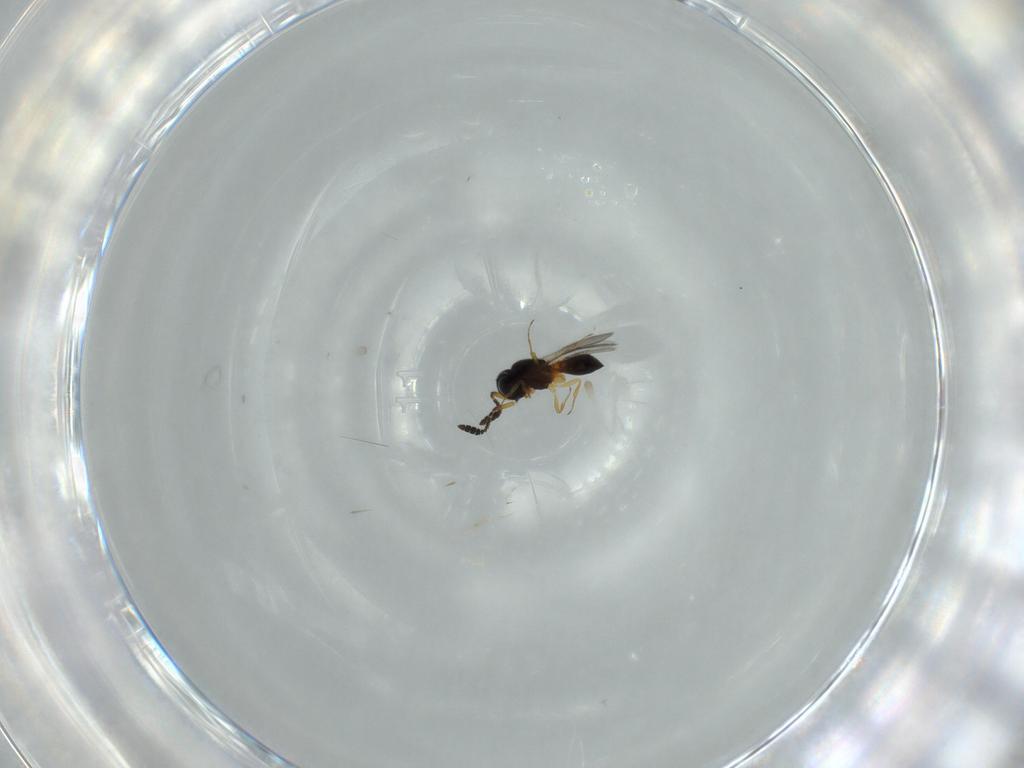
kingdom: Animalia
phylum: Arthropoda
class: Insecta
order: Hymenoptera
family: Scelionidae
